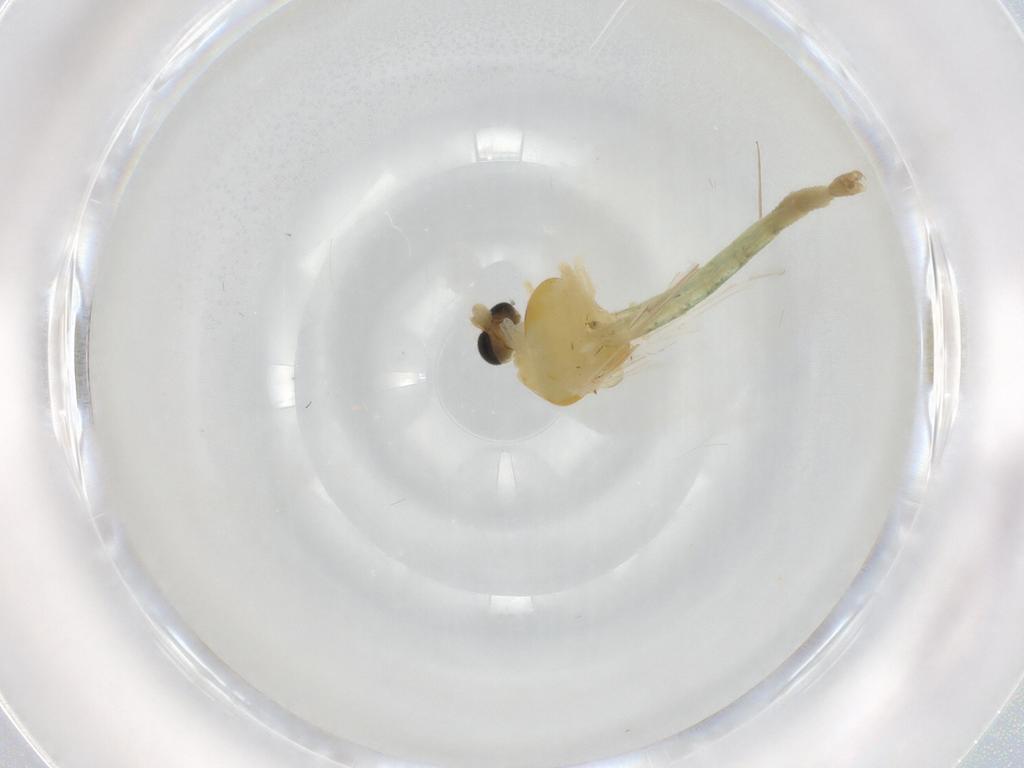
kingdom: Animalia
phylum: Arthropoda
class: Insecta
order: Diptera
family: Chironomidae
